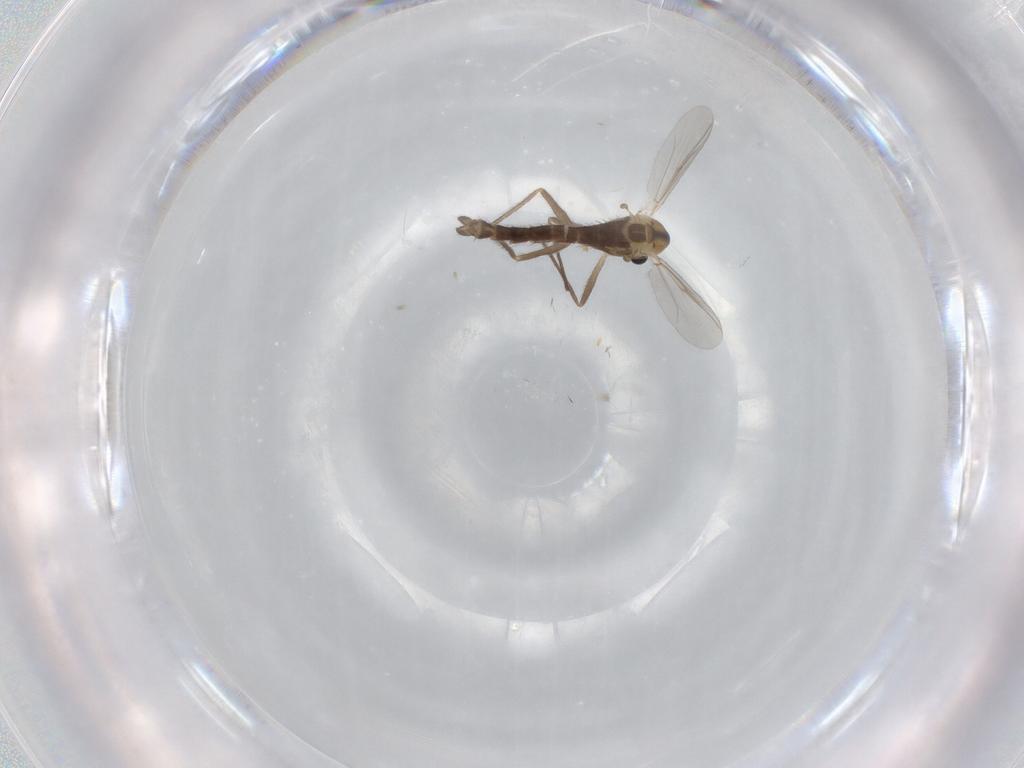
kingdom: Animalia
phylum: Arthropoda
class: Insecta
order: Diptera
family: Chironomidae
